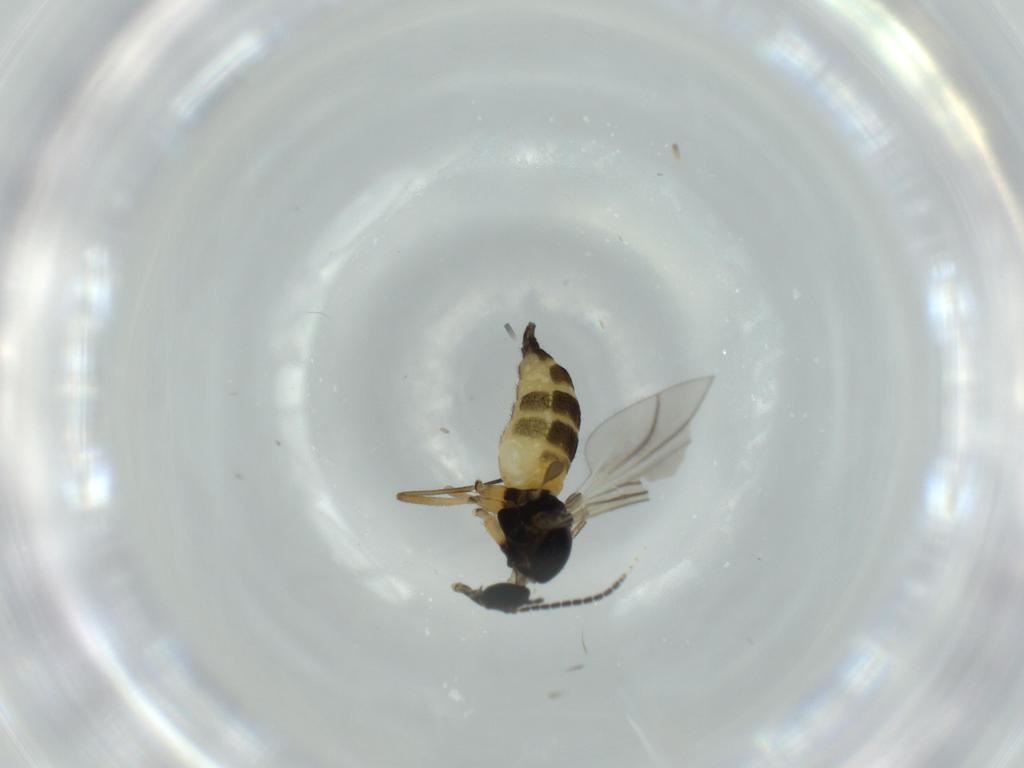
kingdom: Animalia
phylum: Arthropoda
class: Insecta
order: Diptera
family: Sciaridae
